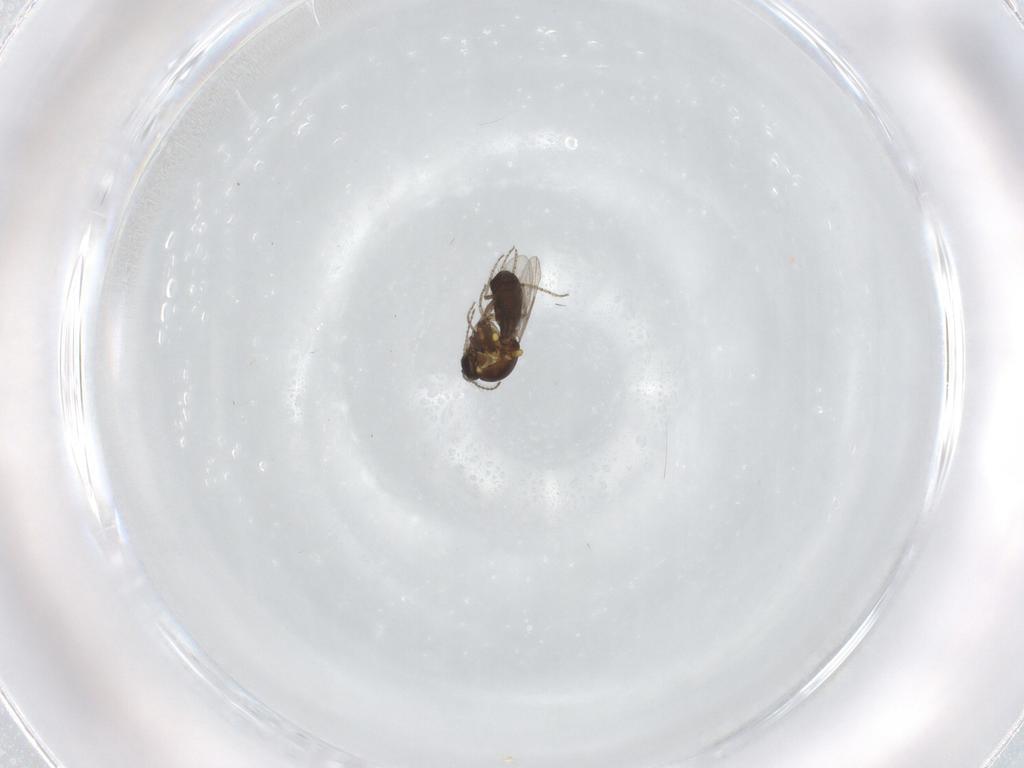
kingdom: Animalia
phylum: Arthropoda
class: Insecta
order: Diptera
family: Ceratopogonidae
